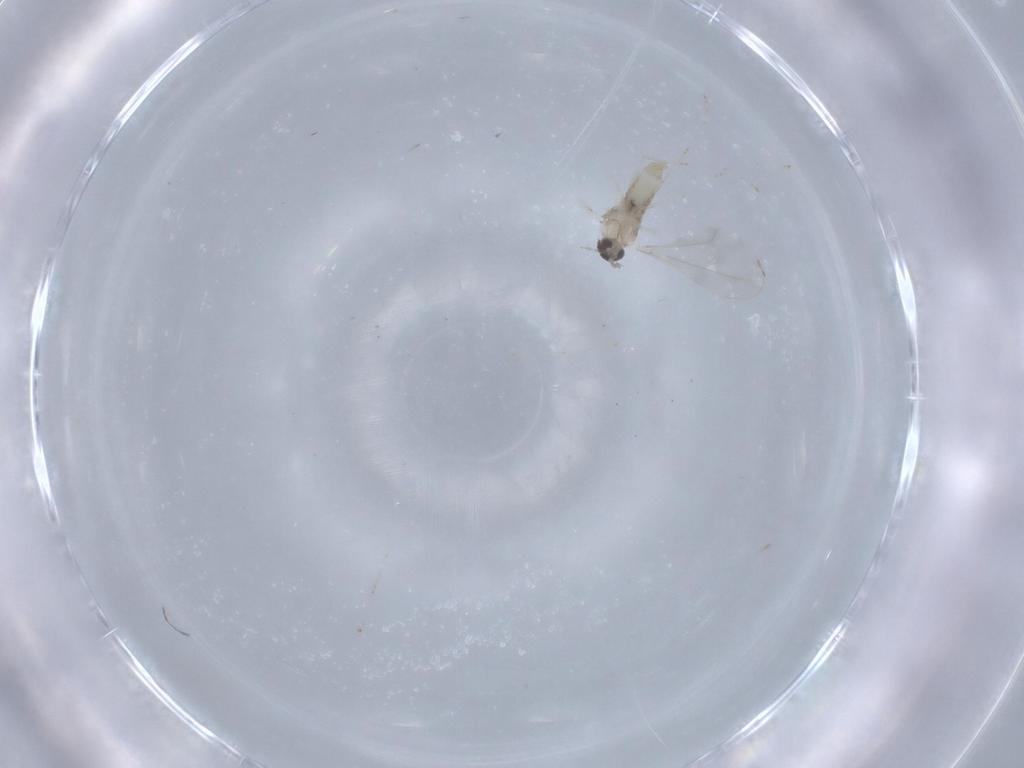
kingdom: Animalia
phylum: Arthropoda
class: Insecta
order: Diptera
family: Cecidomyiidae
